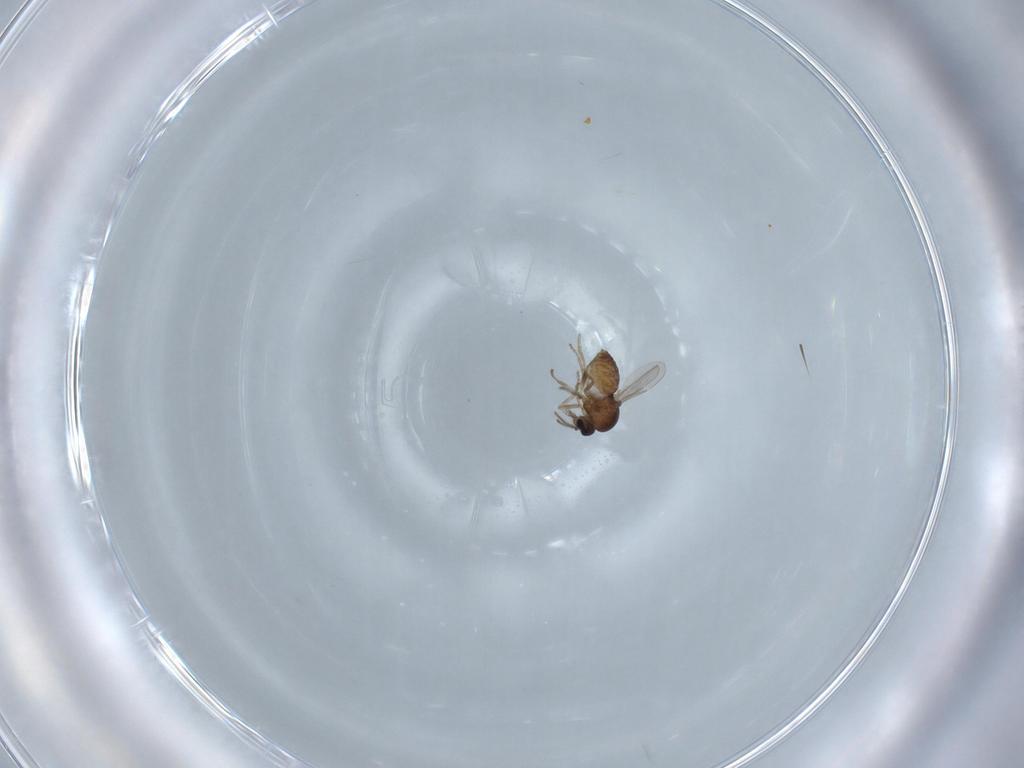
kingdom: Animalia
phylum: Arthropoda
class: Insecta
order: Diptera
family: Ceratopogonidae
